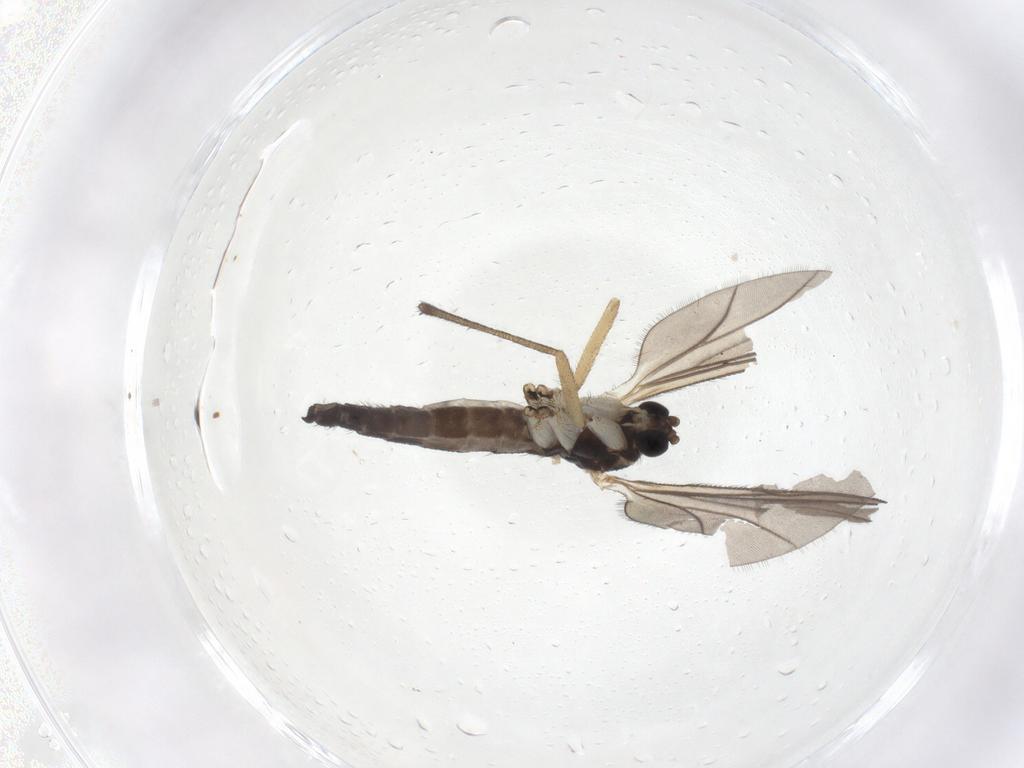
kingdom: Animalia
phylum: Arthropoda
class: Insecta
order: Diptera
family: Sciaridae
